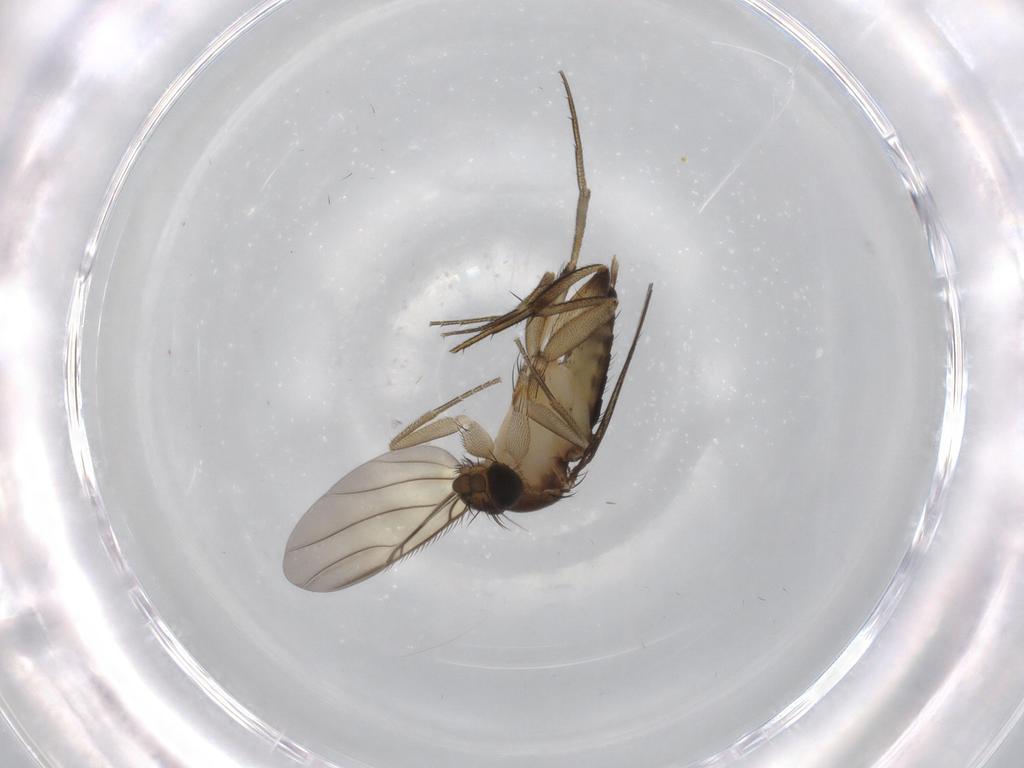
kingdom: Animalia
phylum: Arthropoda
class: Insecta
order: Diptera
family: Phoridae
